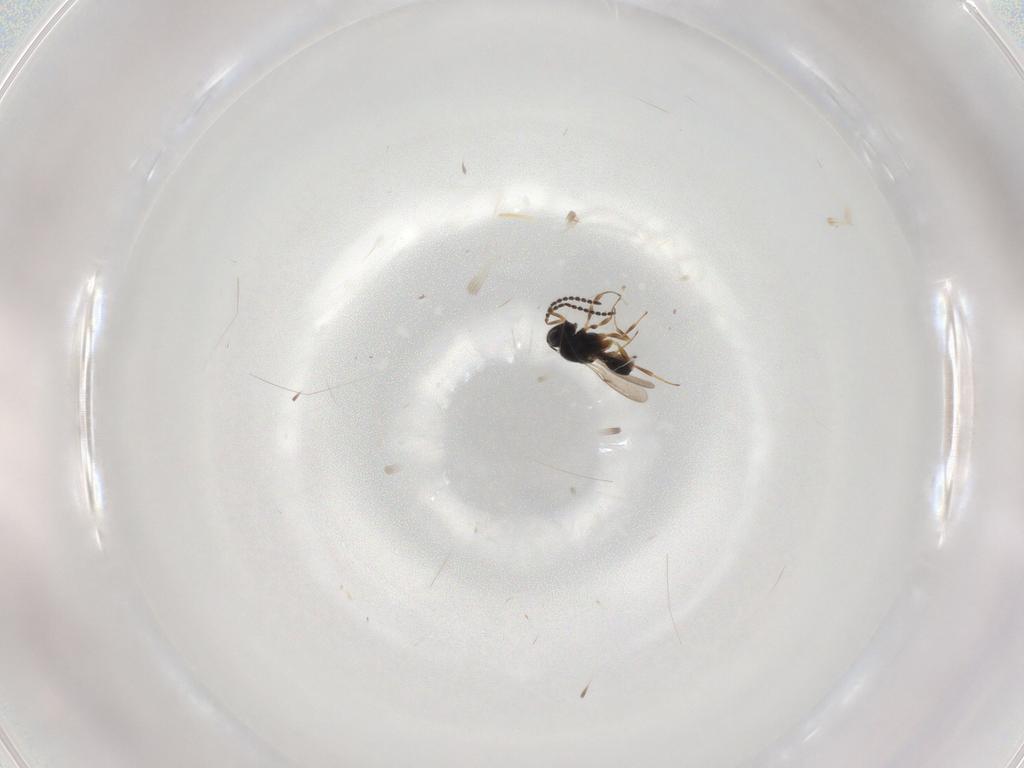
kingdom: Animalia
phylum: Arthropoda
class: Insecta
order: Hymenoptera
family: Scelionidae
